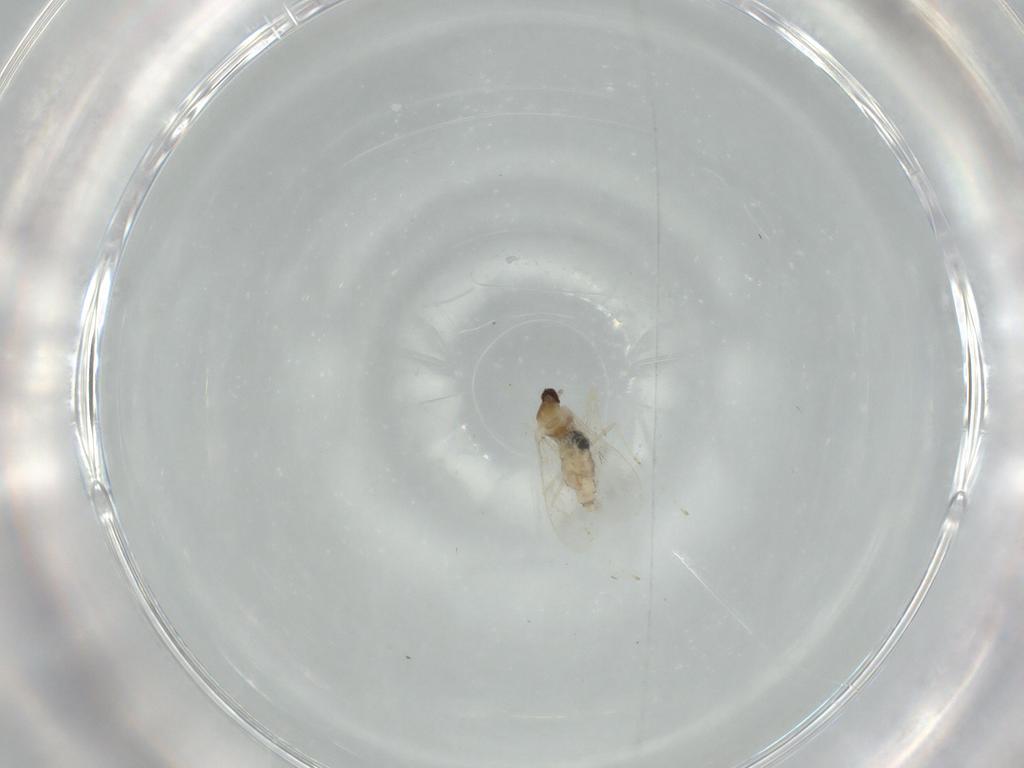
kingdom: Animalia
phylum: Arthropoda
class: Insecta
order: Diptera
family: Cecidomyiidae
